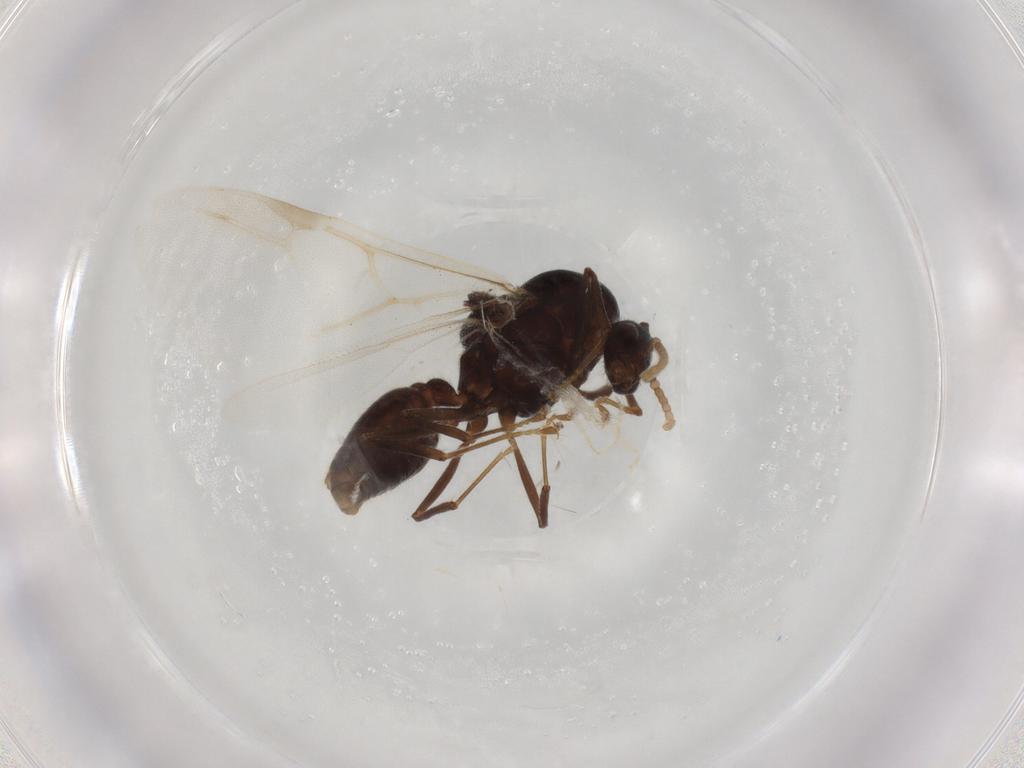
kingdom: Animalia
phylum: Arthropoda
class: Insecta
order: Hymenoptera
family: Formicidae
